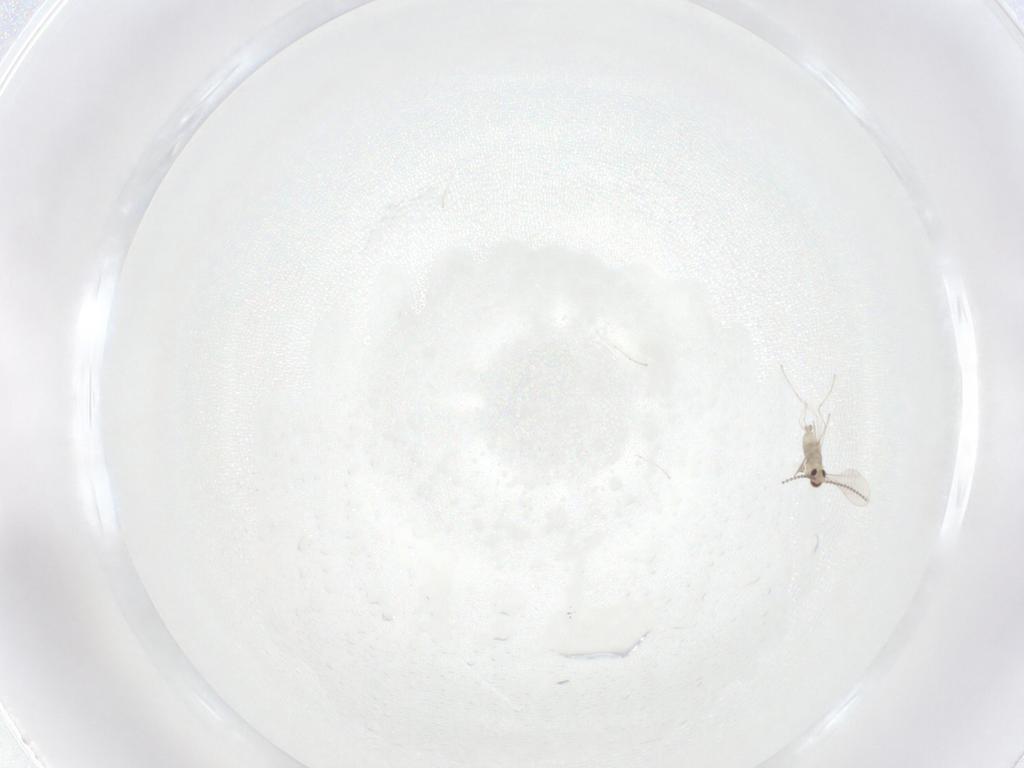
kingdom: Animalia
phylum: Arthropoda
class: Insecta
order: Diptera
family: Cecidomyiidae
